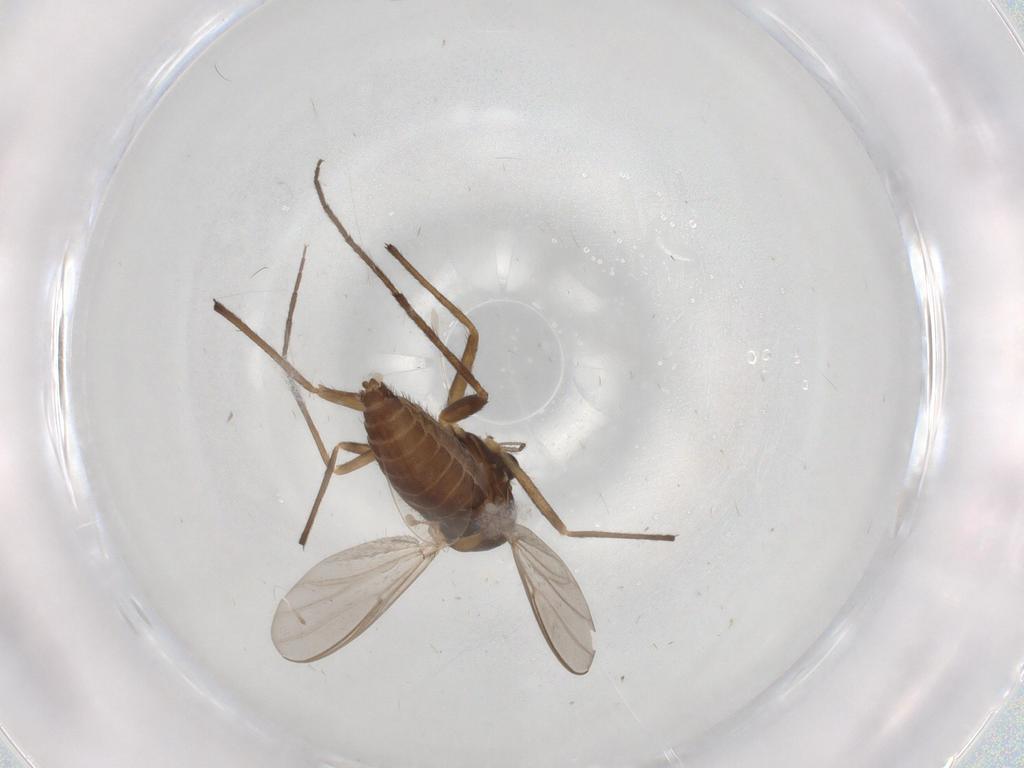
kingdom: Animalia
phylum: Arthropoda
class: Insecta
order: Diptera
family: Chironomidae
